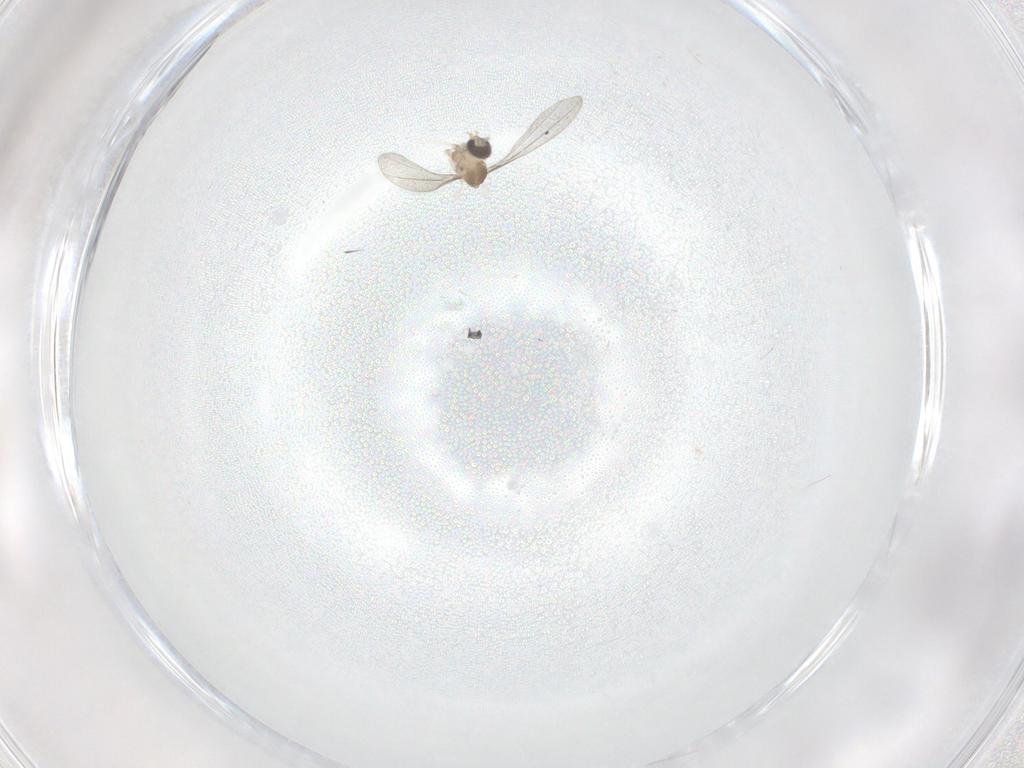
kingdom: Animalia
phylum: Arthropoda
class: Insecta
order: Diptera
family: Cecidomyiidae
